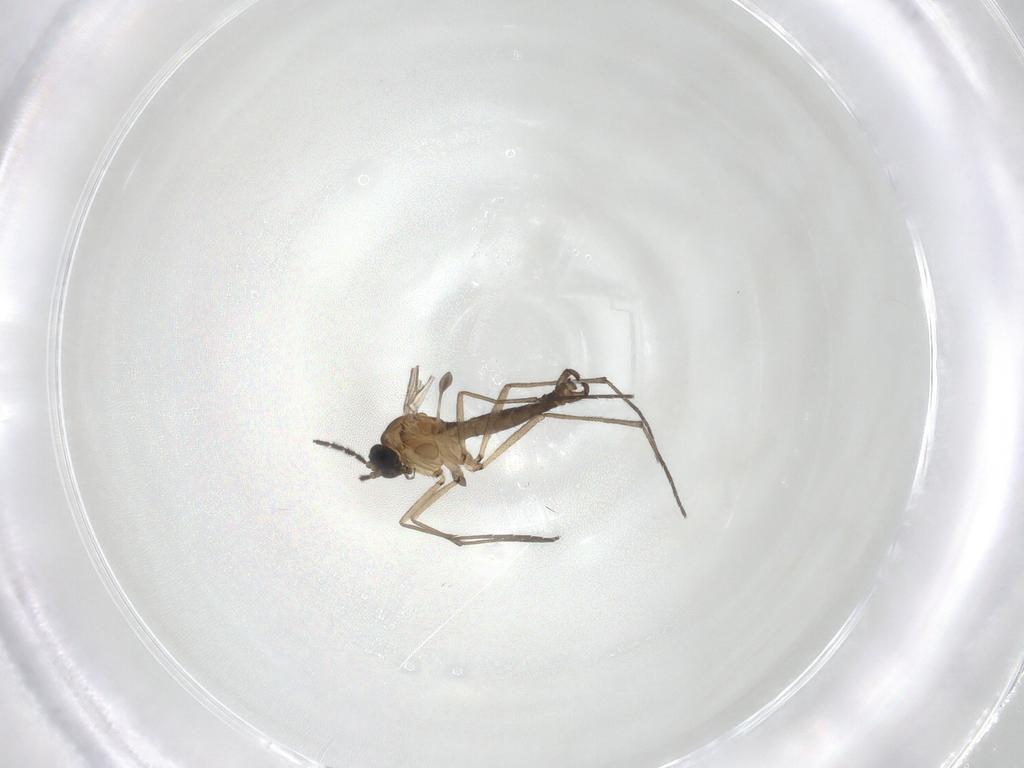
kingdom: Animalia
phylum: Arthropoda
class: Insecta
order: Diptera
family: Sciaridae
